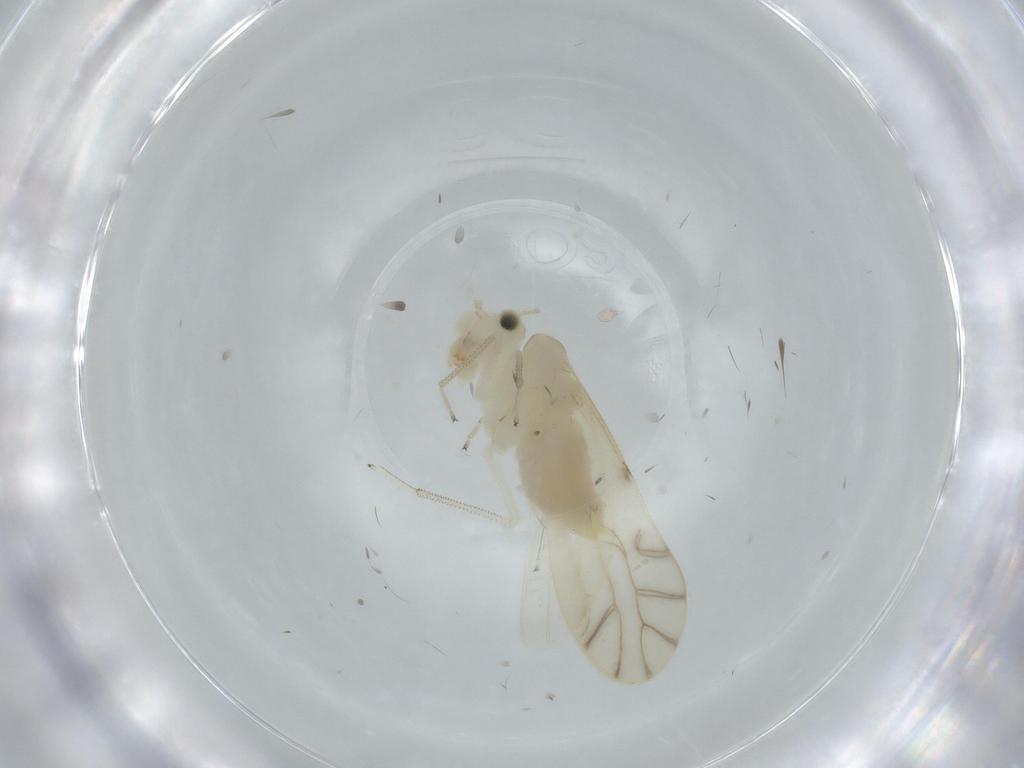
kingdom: Animalia
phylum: Arthropoda
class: Insecta
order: Psocodea
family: Caeciliusidae
